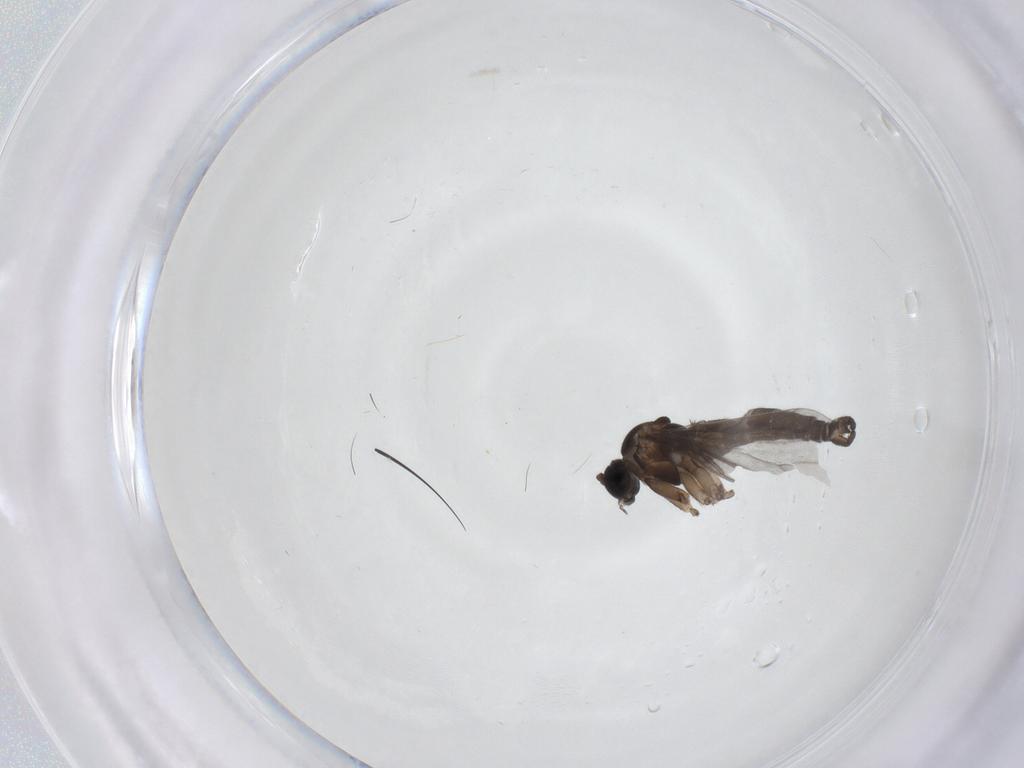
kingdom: Animalia
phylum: Arthropoda
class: Insecta
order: Diptera
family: Sciaridae
